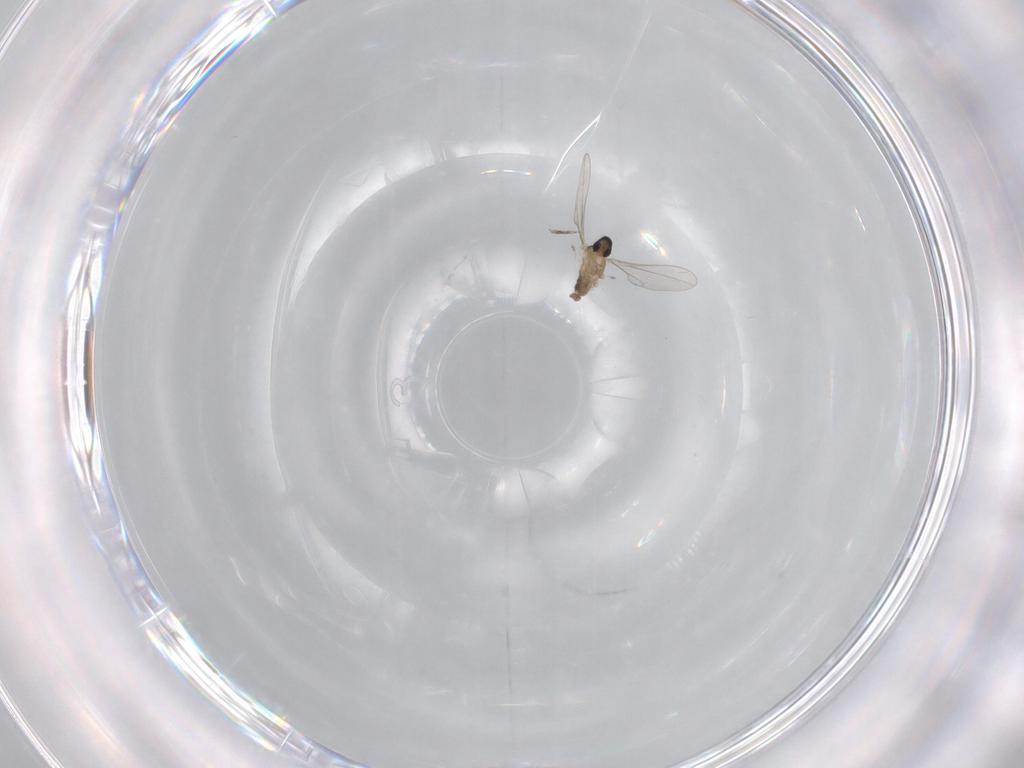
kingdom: Animalia
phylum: Arthropoda
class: Insecta
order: Diptera
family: Cecidomyiidae
